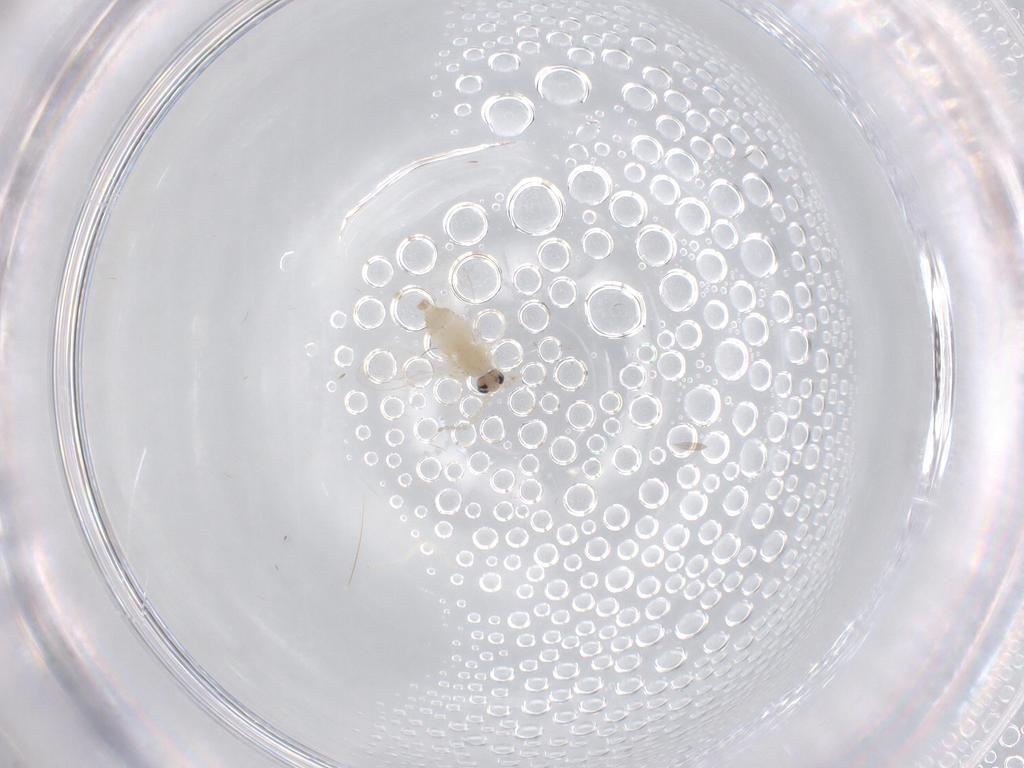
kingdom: Animalia
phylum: Arthropoda
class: Insecta
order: Diptera
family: Cecidomyiidae
